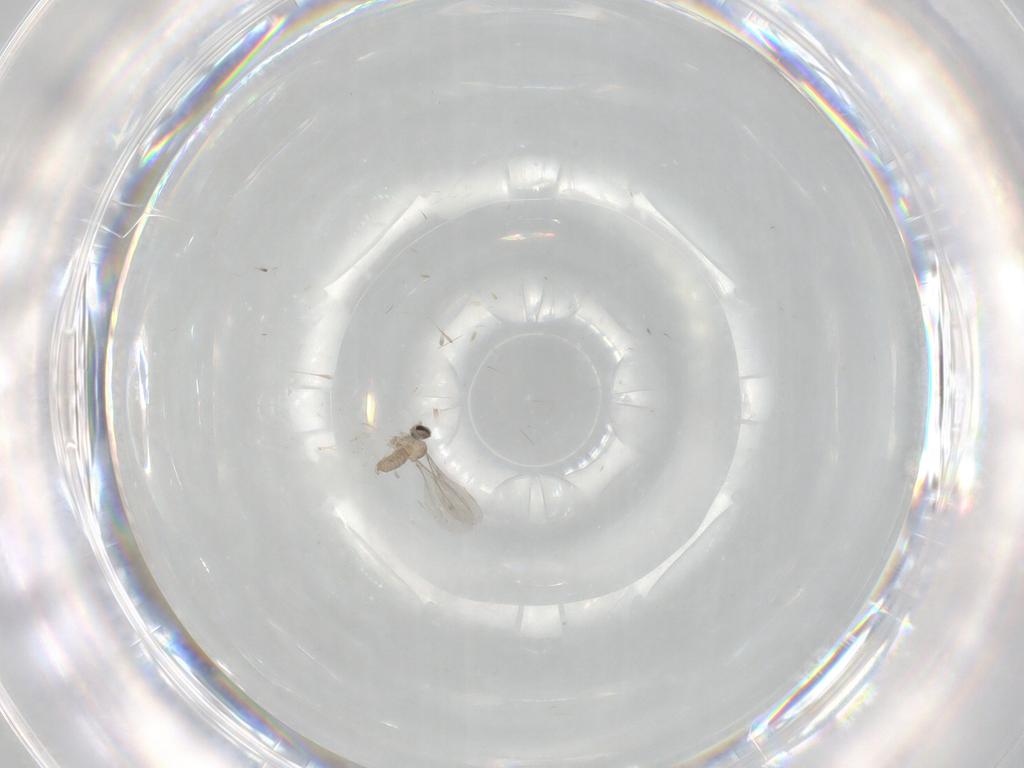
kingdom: Animalia
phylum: Arthropoda
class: Insecta
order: Diptera
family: Cecidomyiidae
